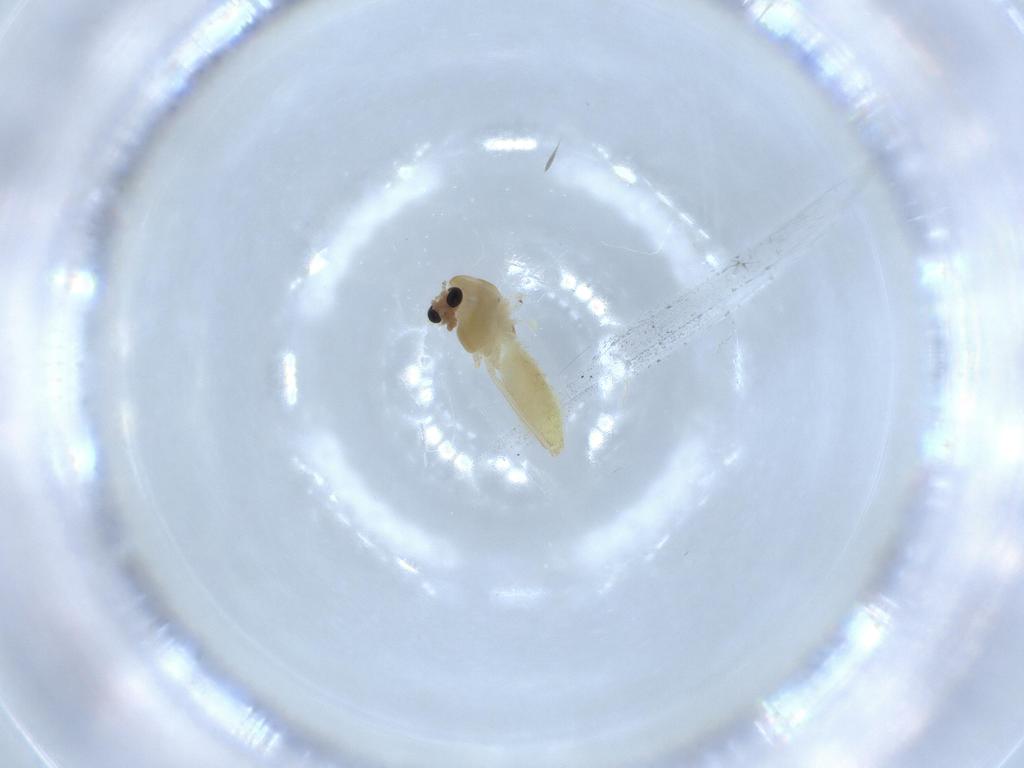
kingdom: Animalia
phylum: Arthropoda
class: Insecta
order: Diptera
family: Chironomidae
